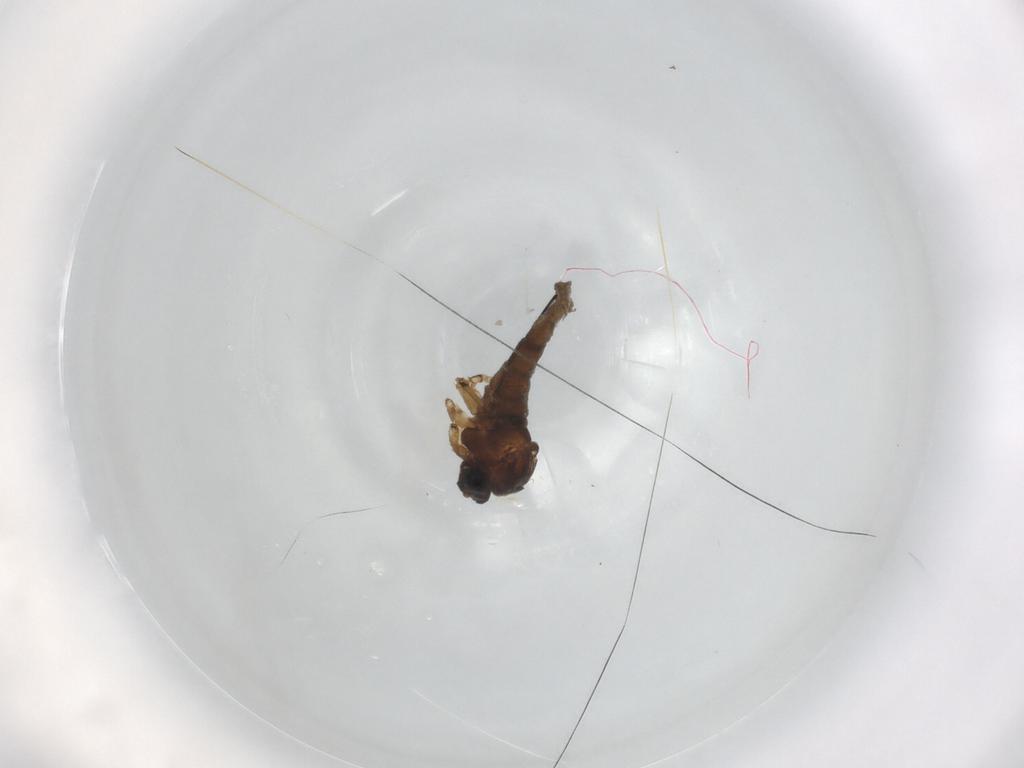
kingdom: Animalia
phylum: Arthropoda
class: Insecta
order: Diptera
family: Sciaridae
